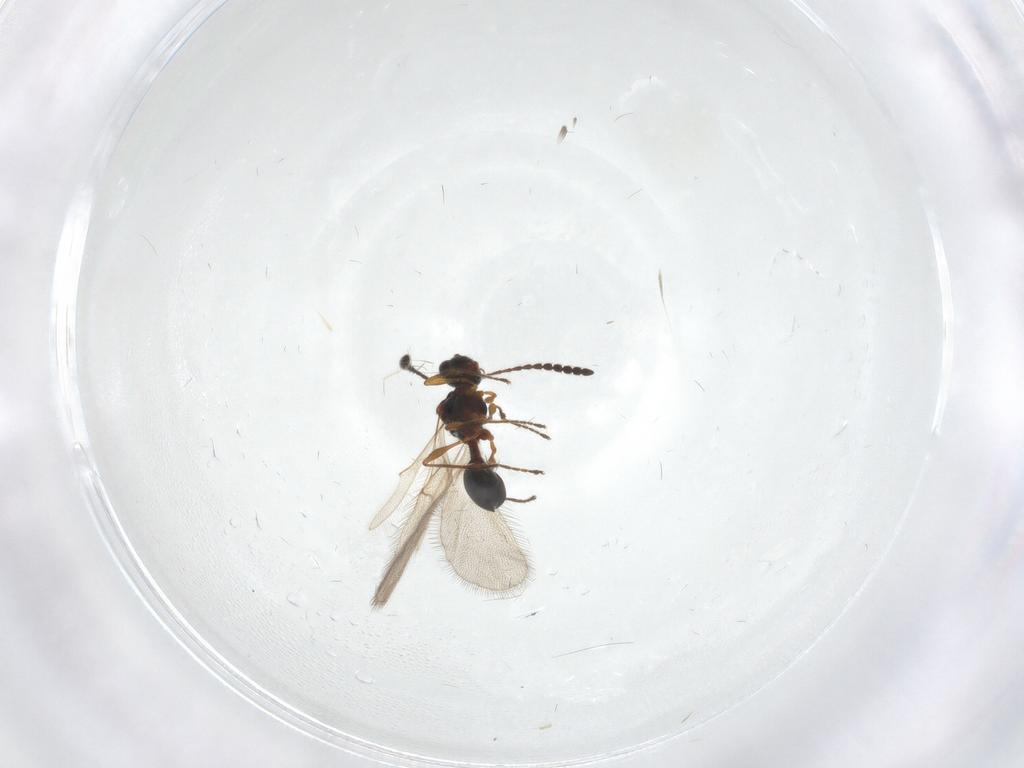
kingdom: Animalia
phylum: Arthropoda
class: Insecta
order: Hymenoptera
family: Diapriidae
